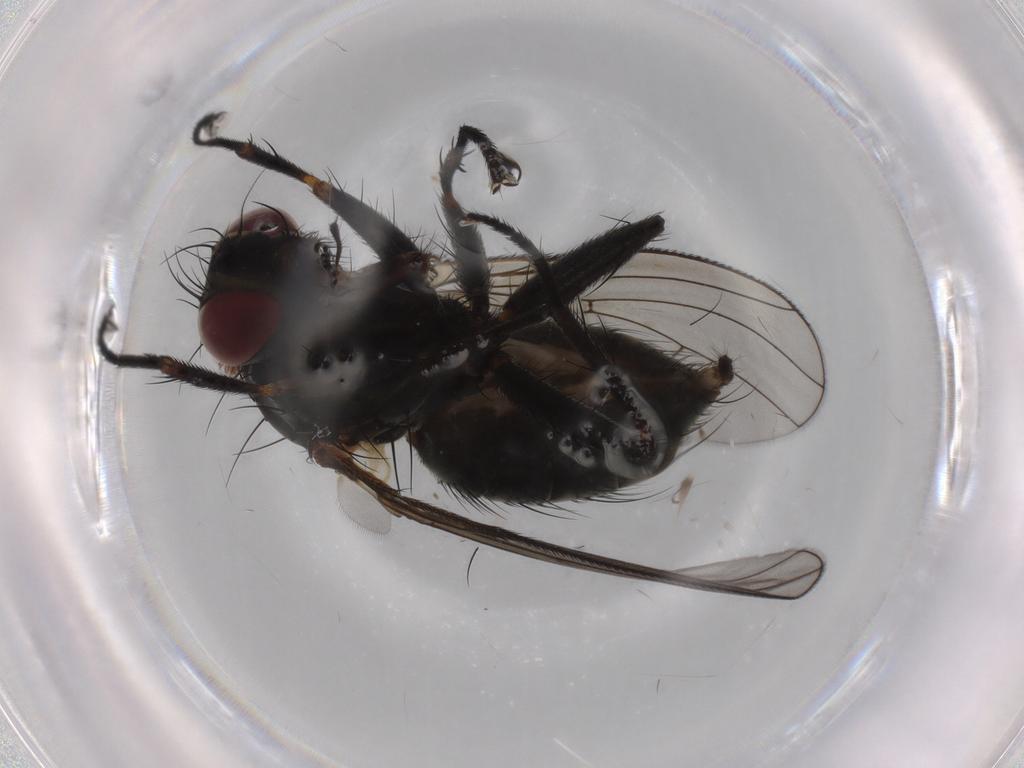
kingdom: Animalia
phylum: Arthropoda
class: Insecta
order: Diptera
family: Muscidae
